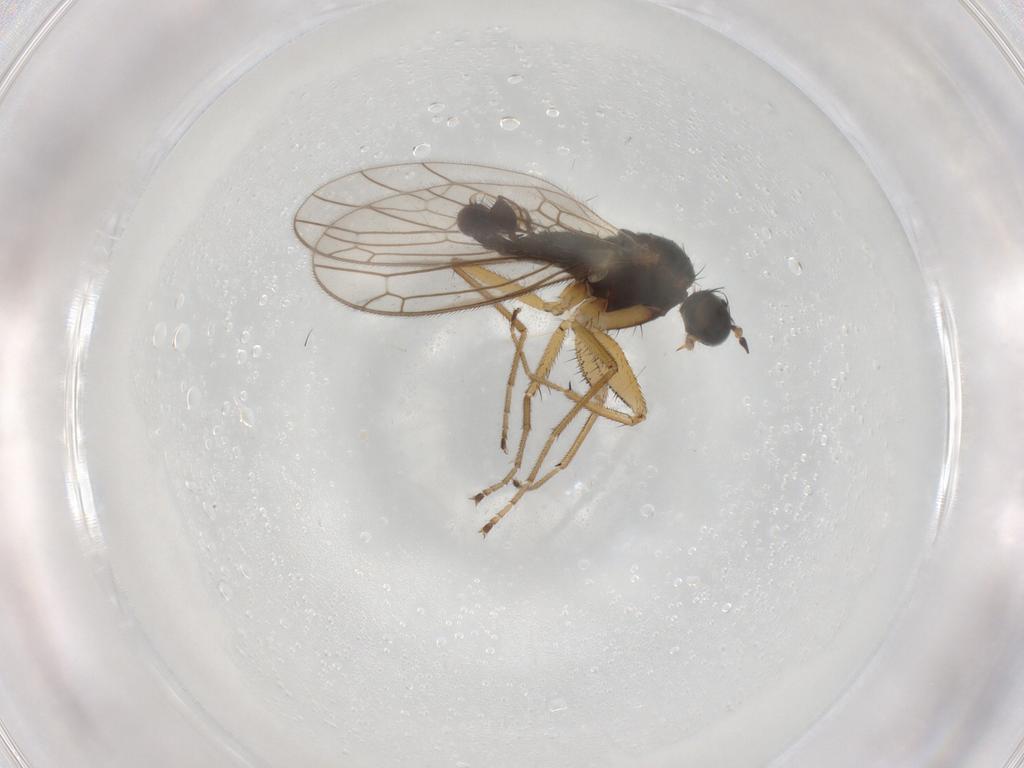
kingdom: Animalia
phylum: Arthropoda
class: Insecta
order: Diptera
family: Empididae
